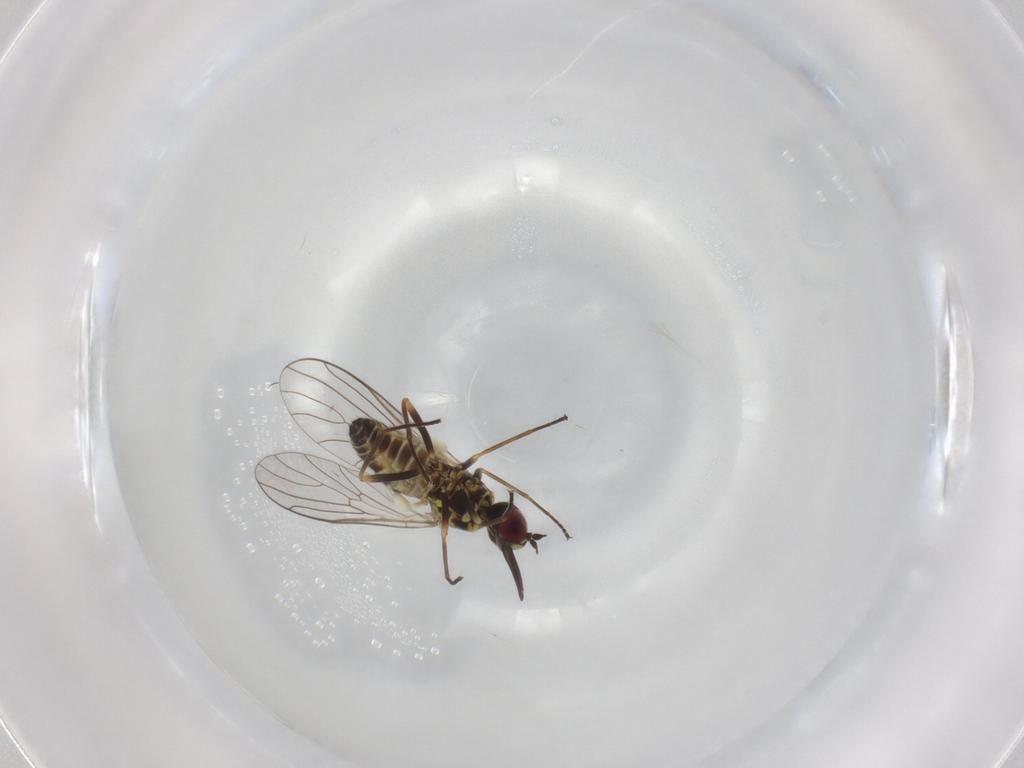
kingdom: Animalia
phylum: Arthropoda
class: Insecta
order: Diptera
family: Bombyliidae
